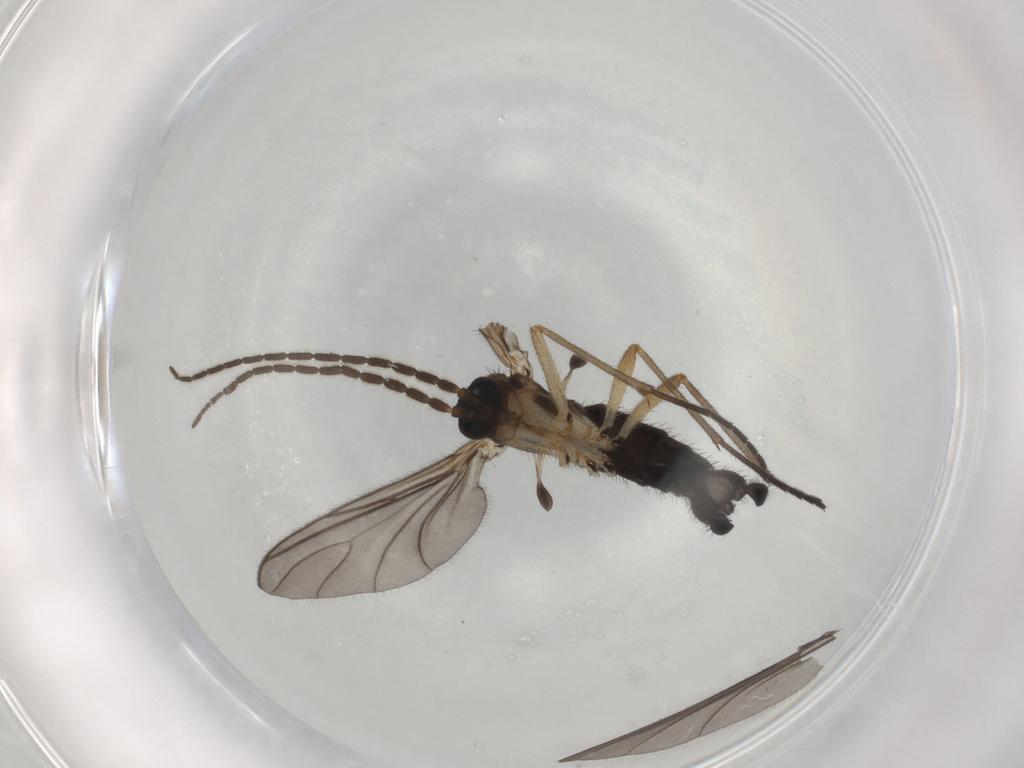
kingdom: Animalia
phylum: Arthropoda
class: Insecta
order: Diptera
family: Sciaridae
